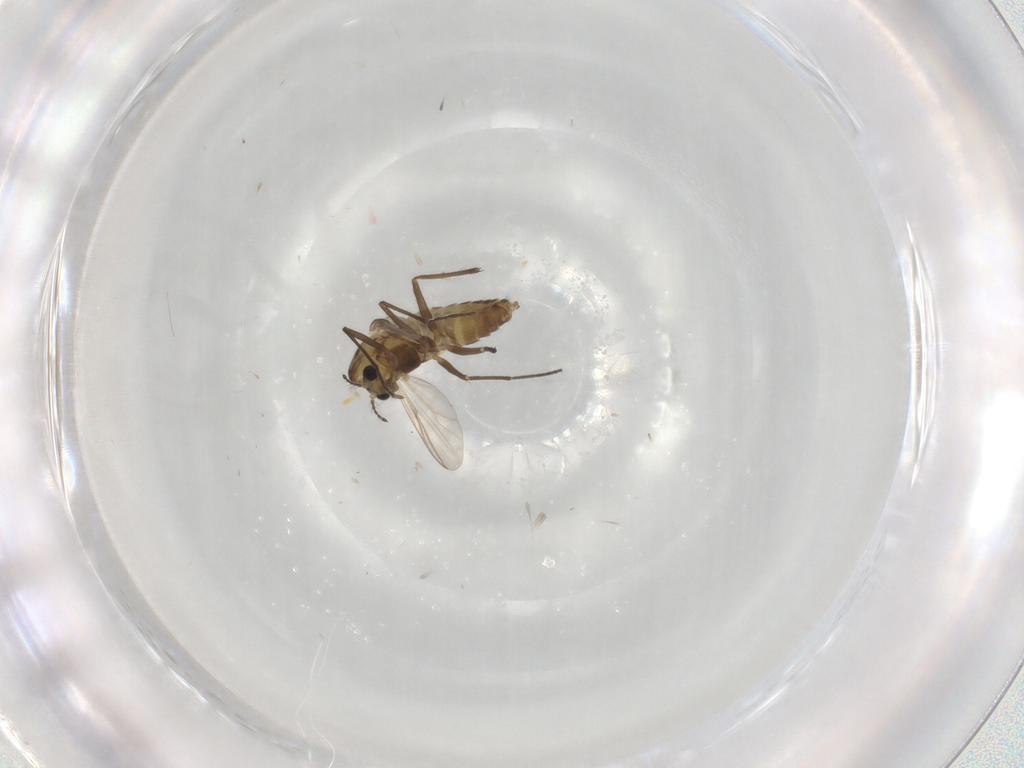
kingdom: Animalia
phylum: Arthropoda
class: Insecta
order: Diptera
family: Chironomidae
